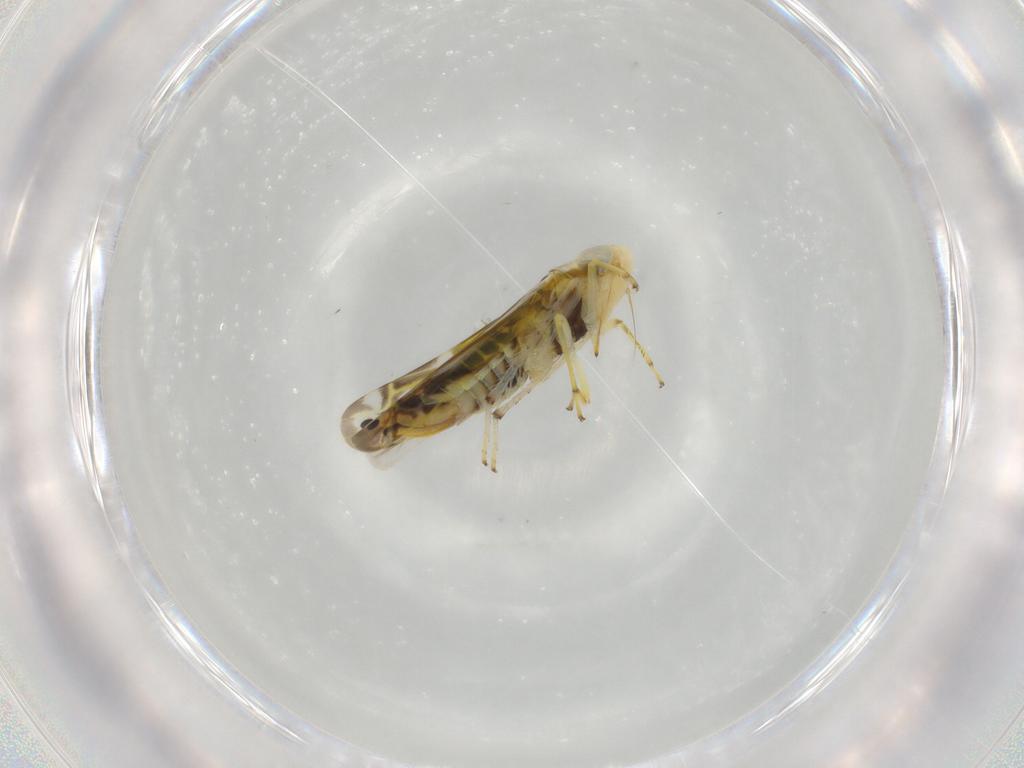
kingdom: Animalia
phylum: Arthropoda
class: Insecta
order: Hemiptera
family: Cicadellidae
